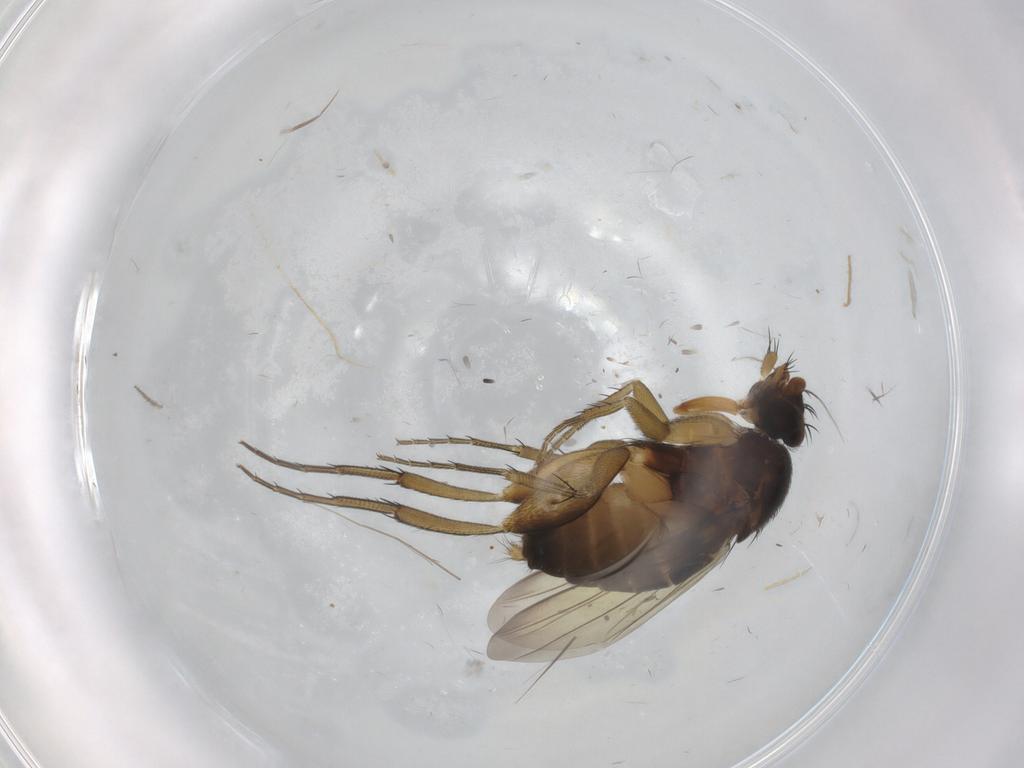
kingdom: Animalia
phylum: Arthropoda
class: Insecta
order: Diptera
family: Phoridae
